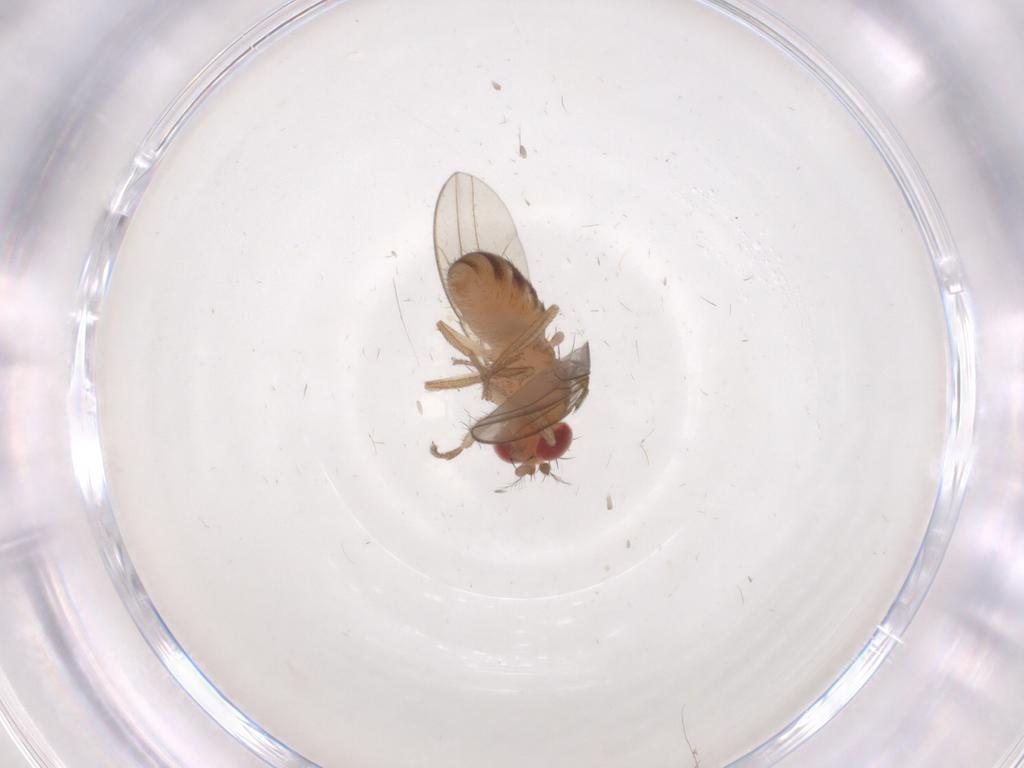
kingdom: Animalia
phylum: Arthropoda
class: Insecta
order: Diptera
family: Drosophilidae
